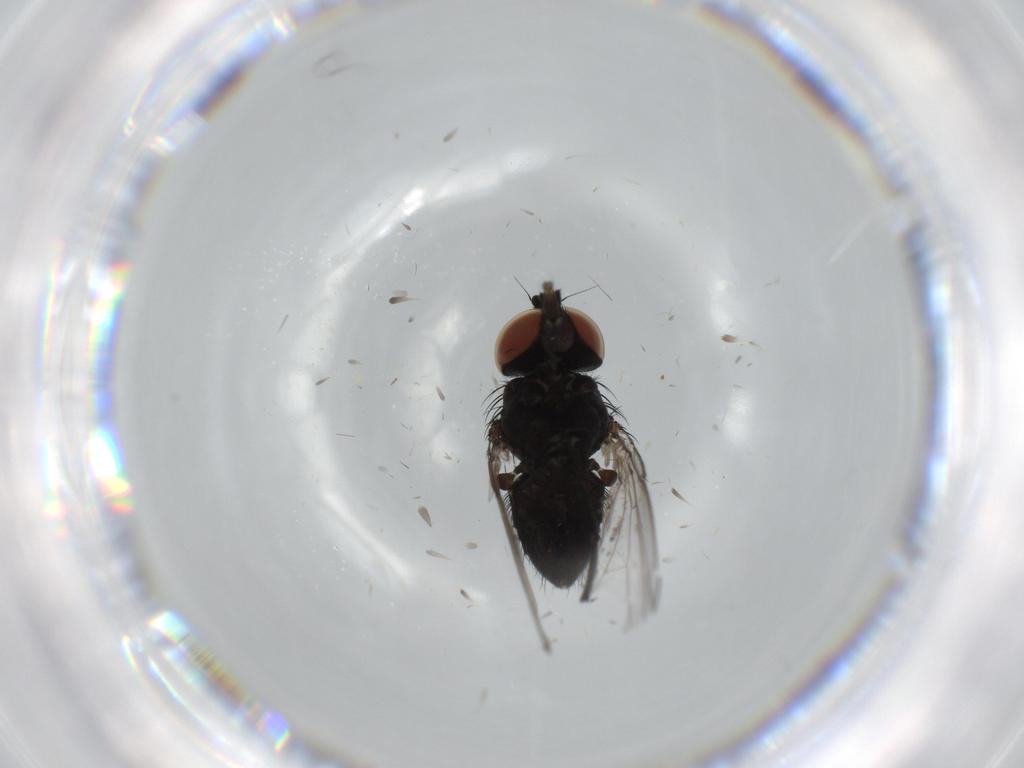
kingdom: Animalia
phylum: Arthropoda
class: Insecta
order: Diptera
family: Milichiidae
